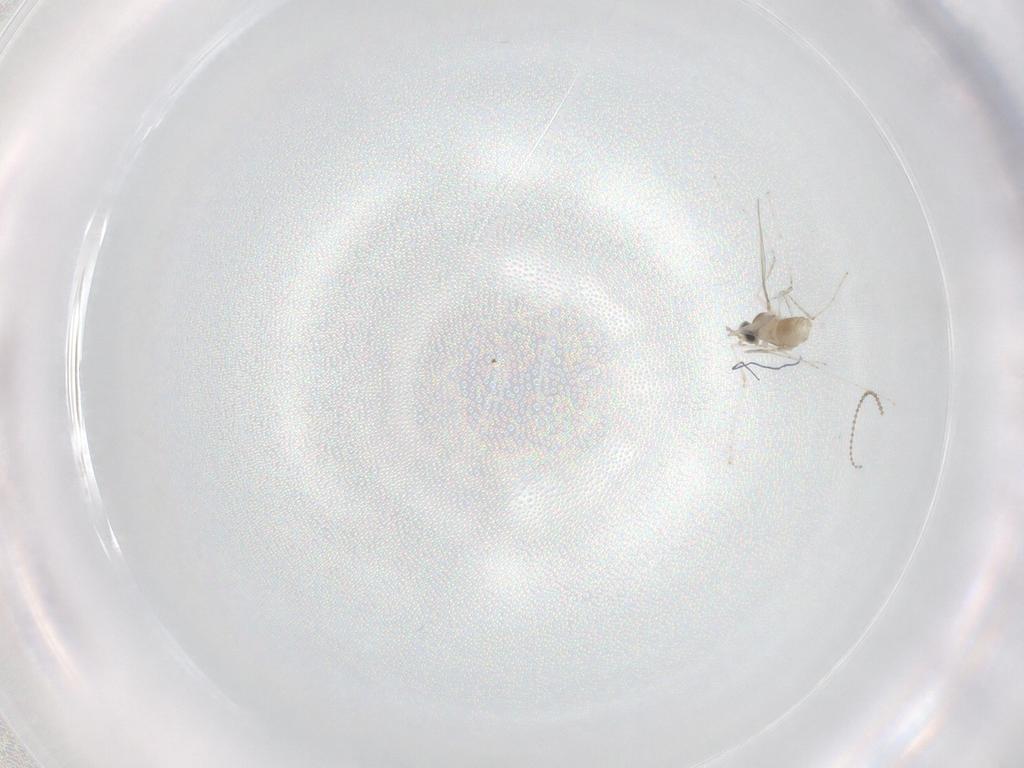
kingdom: Animalia
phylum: Arthropoda
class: Insecta
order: Diptera
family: Cecidomyiidae
